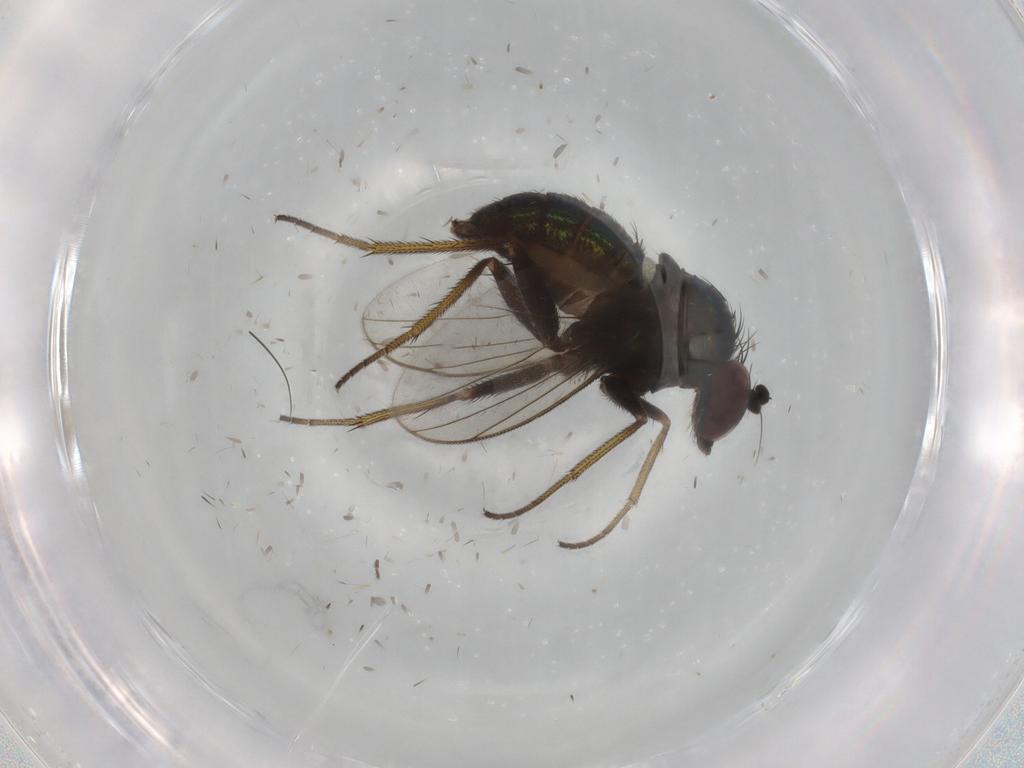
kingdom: Animalia
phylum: Arthropoda
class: Insecta
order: Diptera
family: Dolichopodidae
